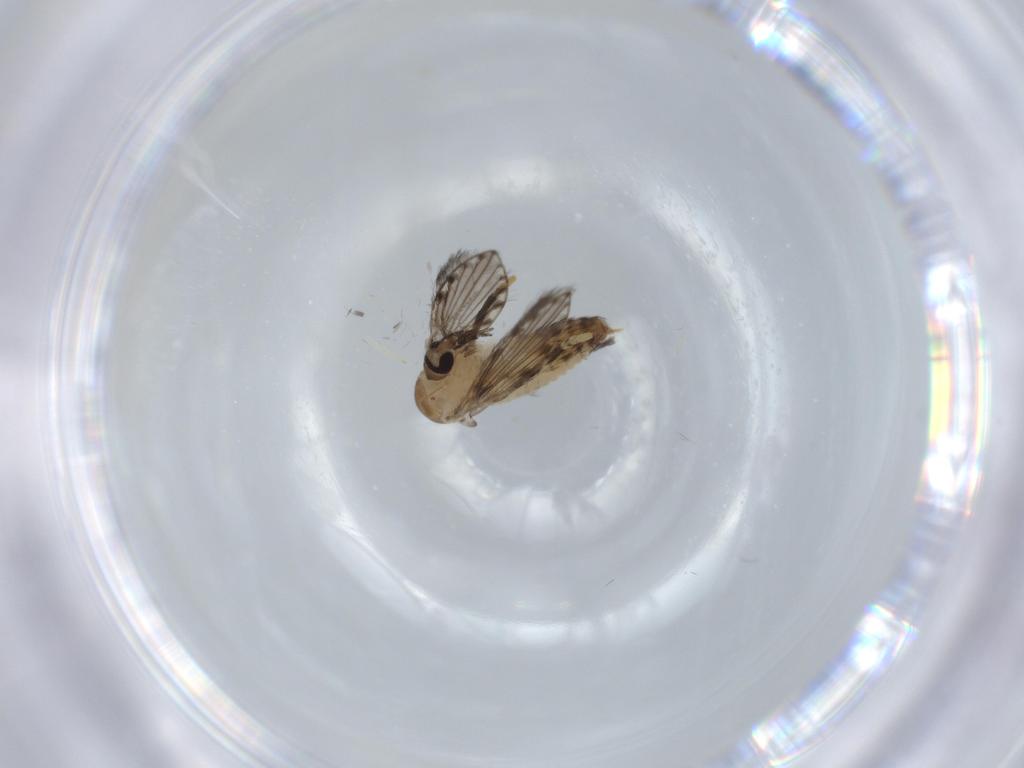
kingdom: Animalia
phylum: Arthropoda
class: Insecta
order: Diptera
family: Psychodidae
